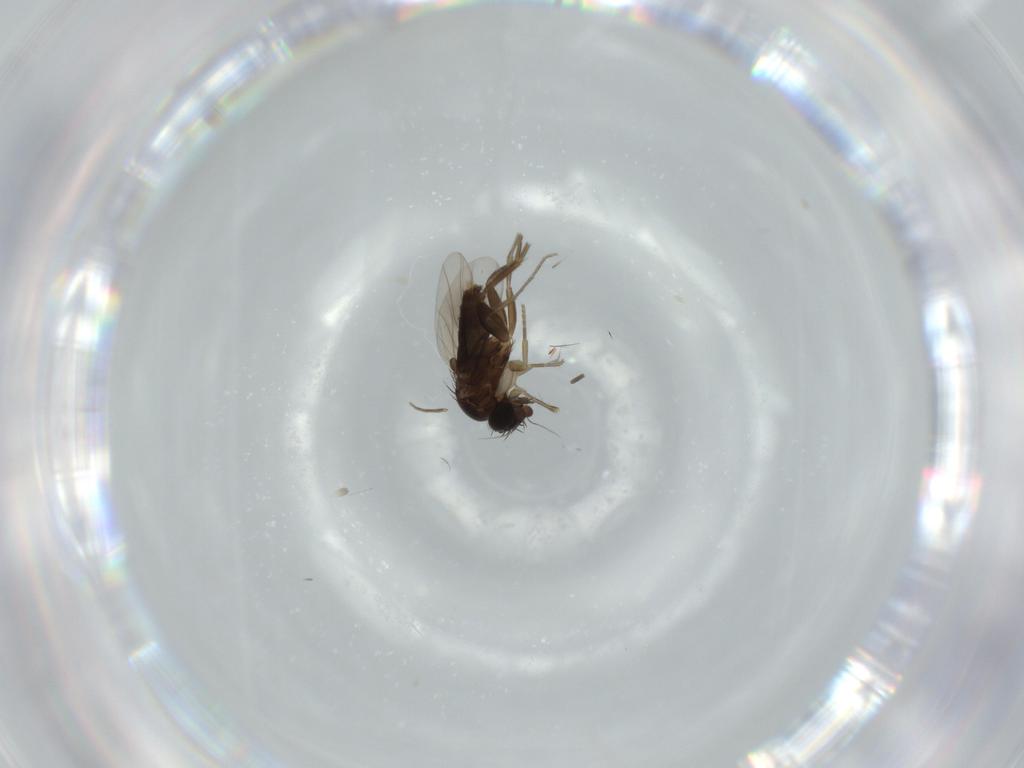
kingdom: Animalia
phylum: Arthropoda
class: Insecta
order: Diptera
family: Phoridae
